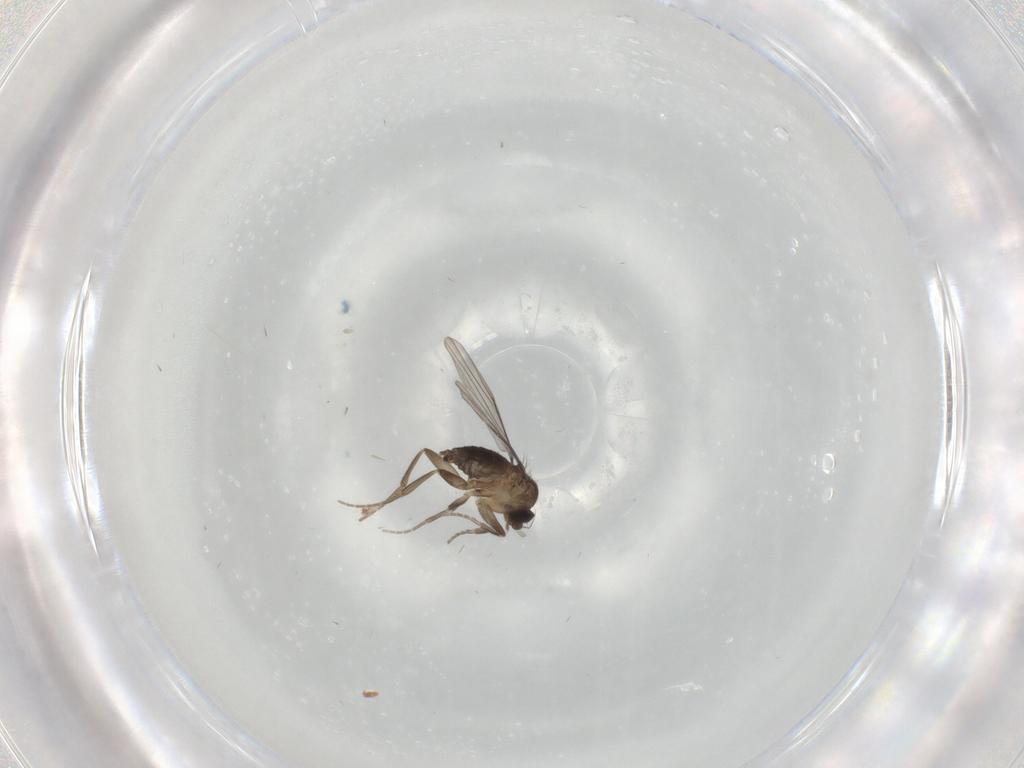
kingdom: Animalia
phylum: Arthropoda
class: Insecta
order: Diptera
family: Phoridae
